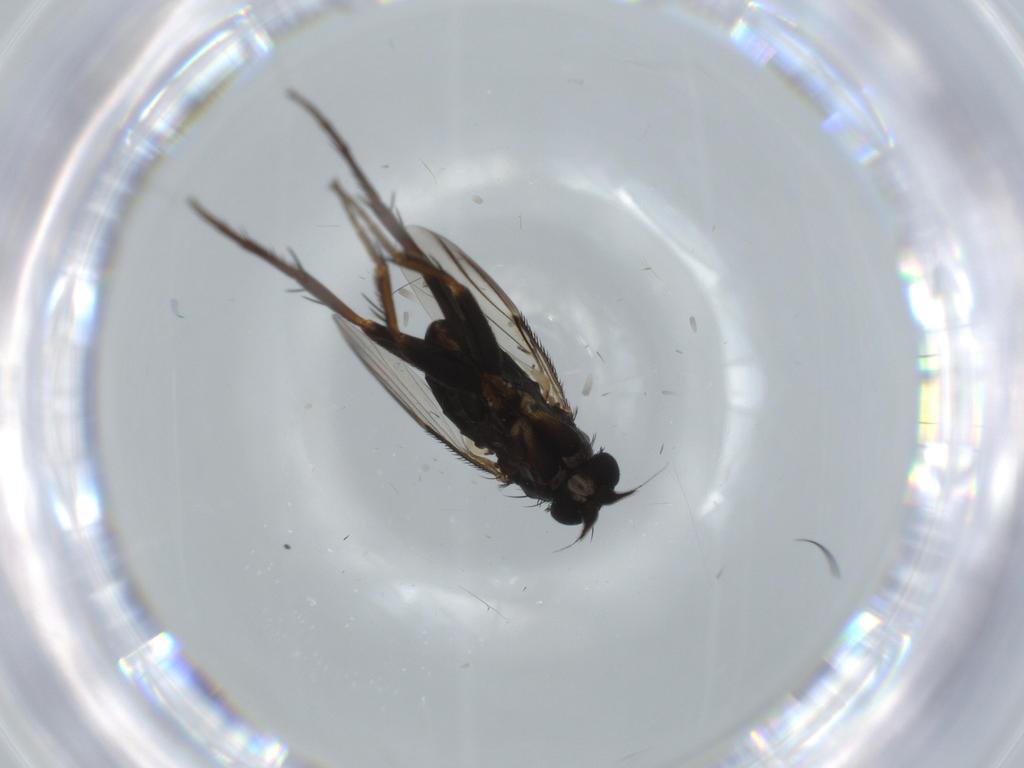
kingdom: Animalia
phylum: Arthropoda
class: Insecta
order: Diptera
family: Phoridae
